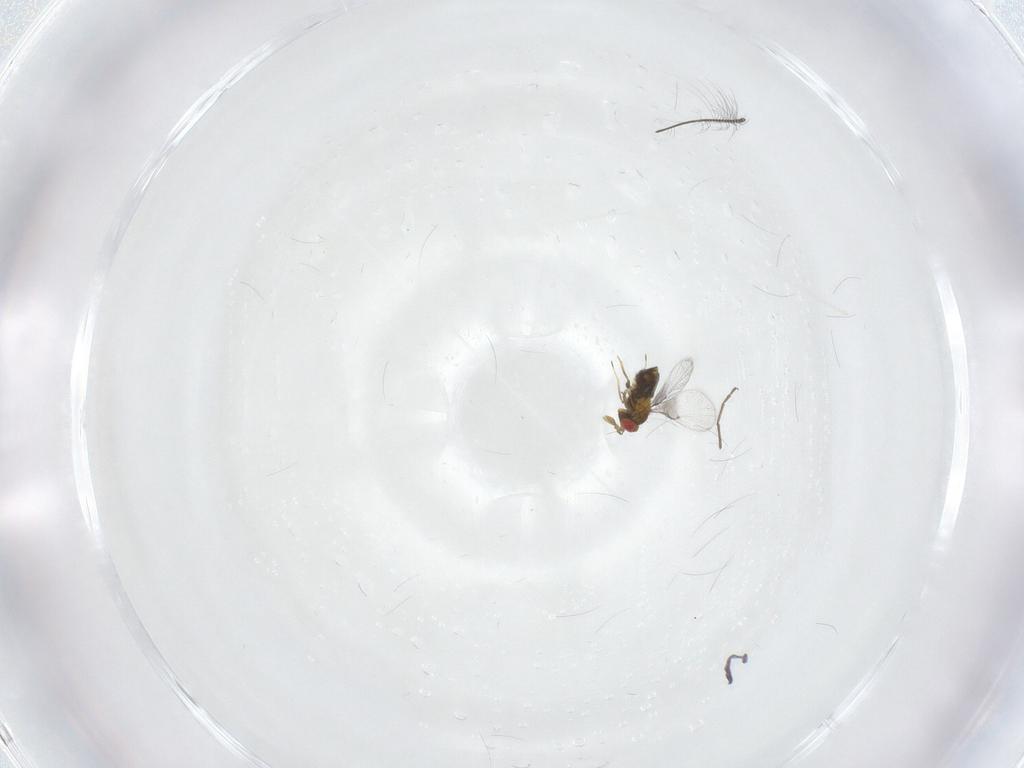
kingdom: Animalia
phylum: Arthropoda
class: Insecta
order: Hymenoptera
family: Trichogrammatidae
